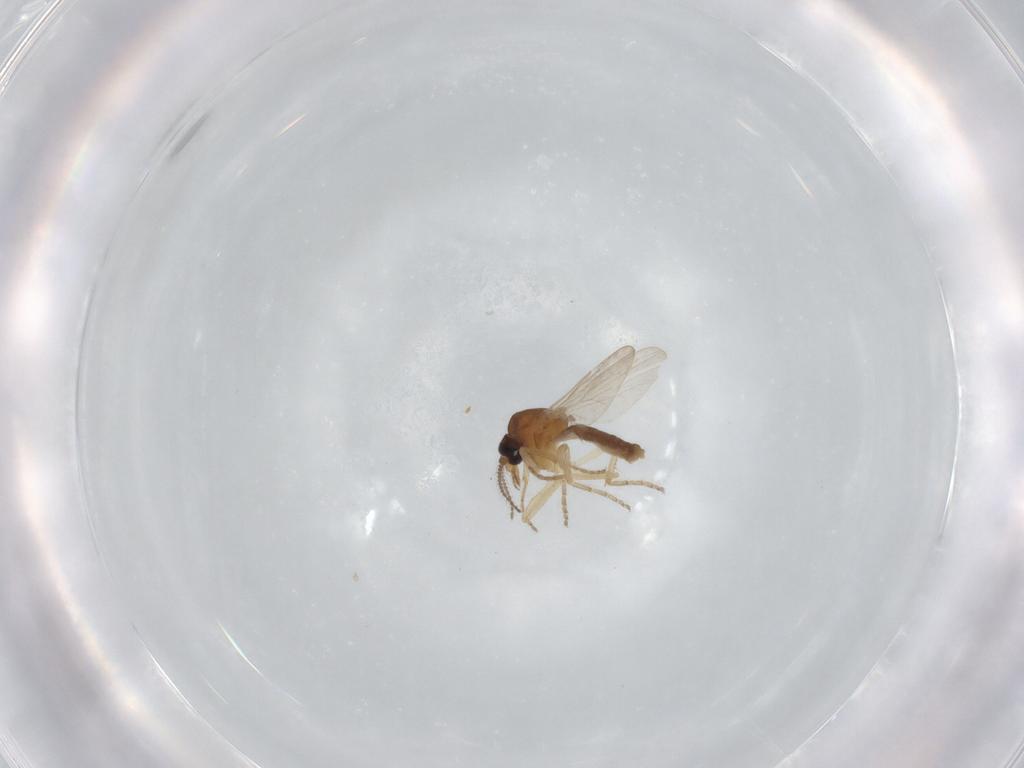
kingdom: Animalia
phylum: Arthropoda
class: Insecta
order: Diptera
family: Ceratopogonidae
